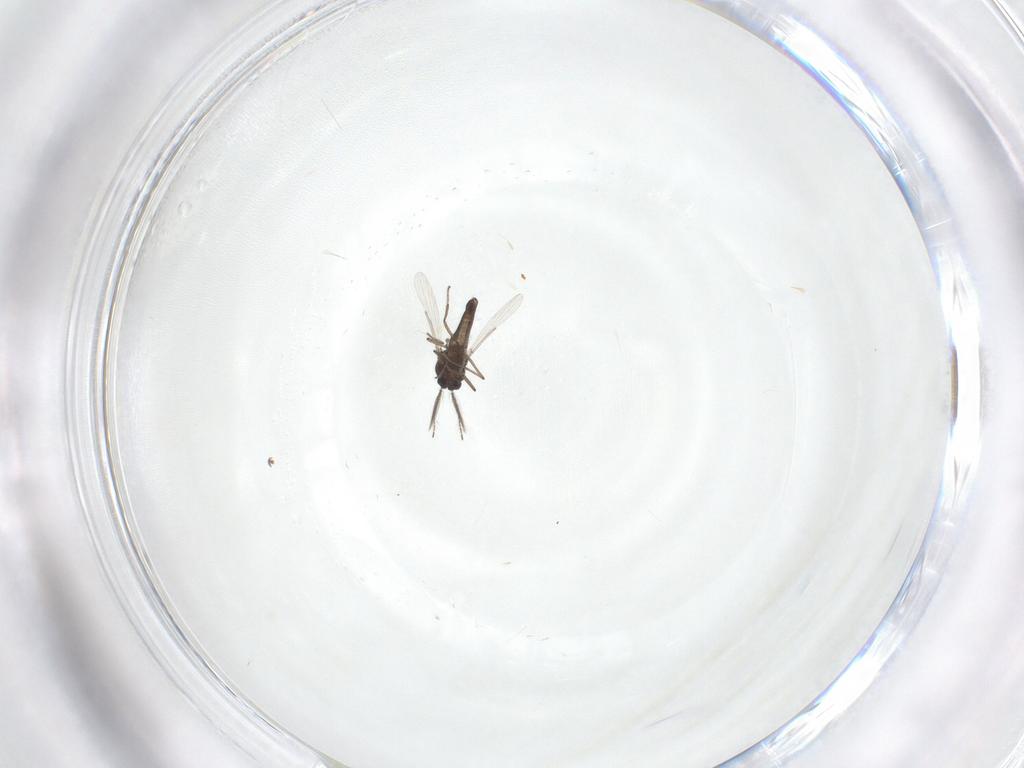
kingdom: Animalia
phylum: Arthropoda
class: Insecta
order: Diptera
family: Ceratopogonidae
